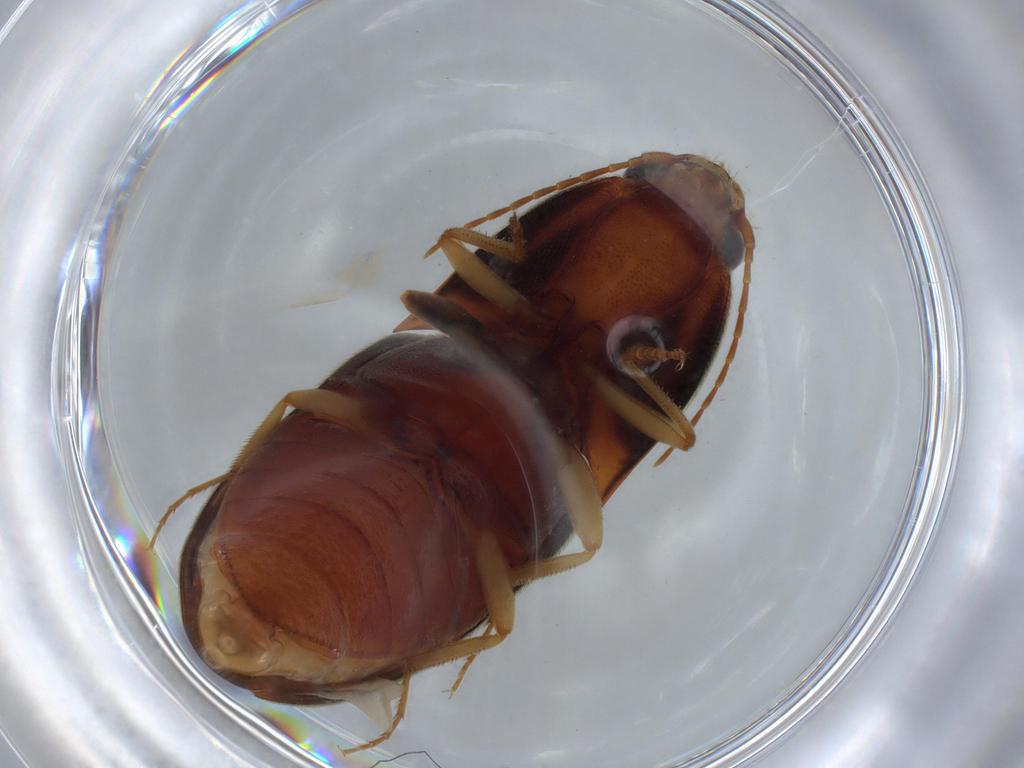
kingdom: Animalia
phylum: Arthropoda
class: Insecta
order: Coleoptera
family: Elateridae
